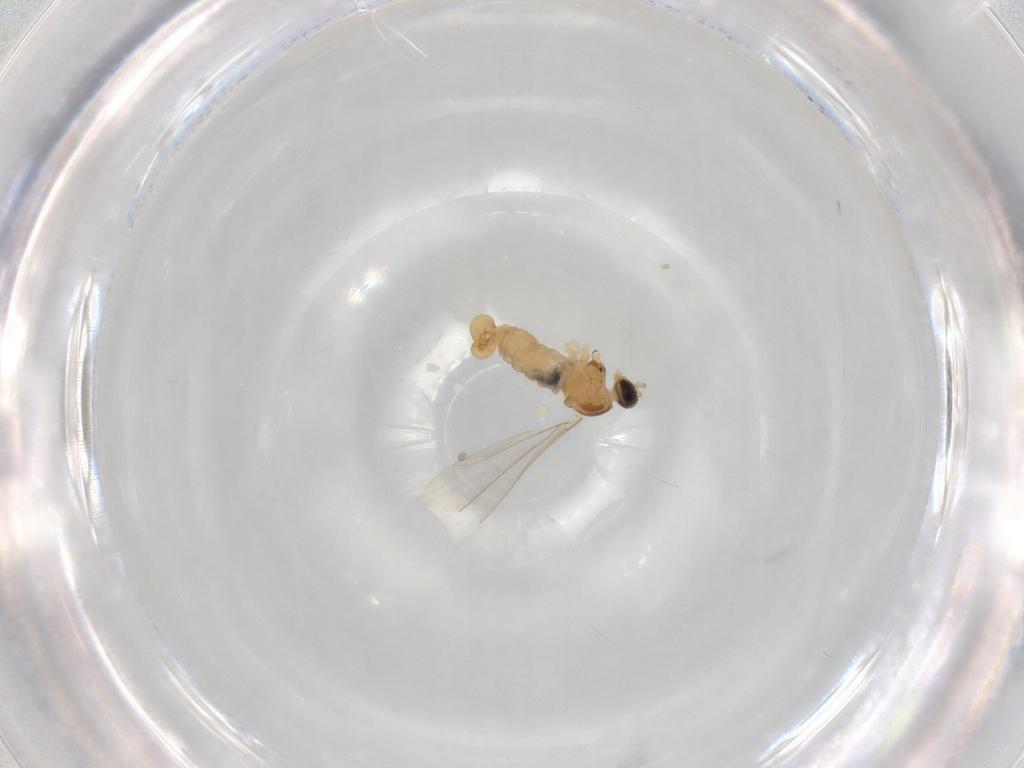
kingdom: Animalia
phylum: Arthropoda
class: Insecta
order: Diptera
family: Cecidomyiidae
